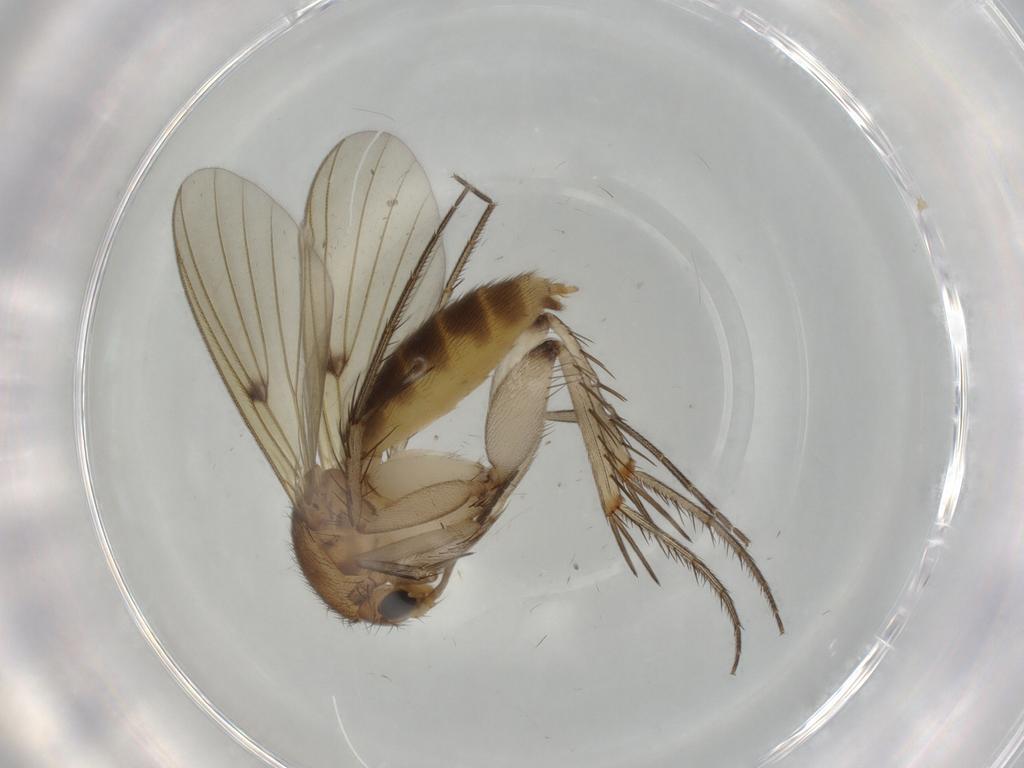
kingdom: Animalia
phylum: Arthropoda
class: Insecta
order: Diptera
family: Mycetophilidae
